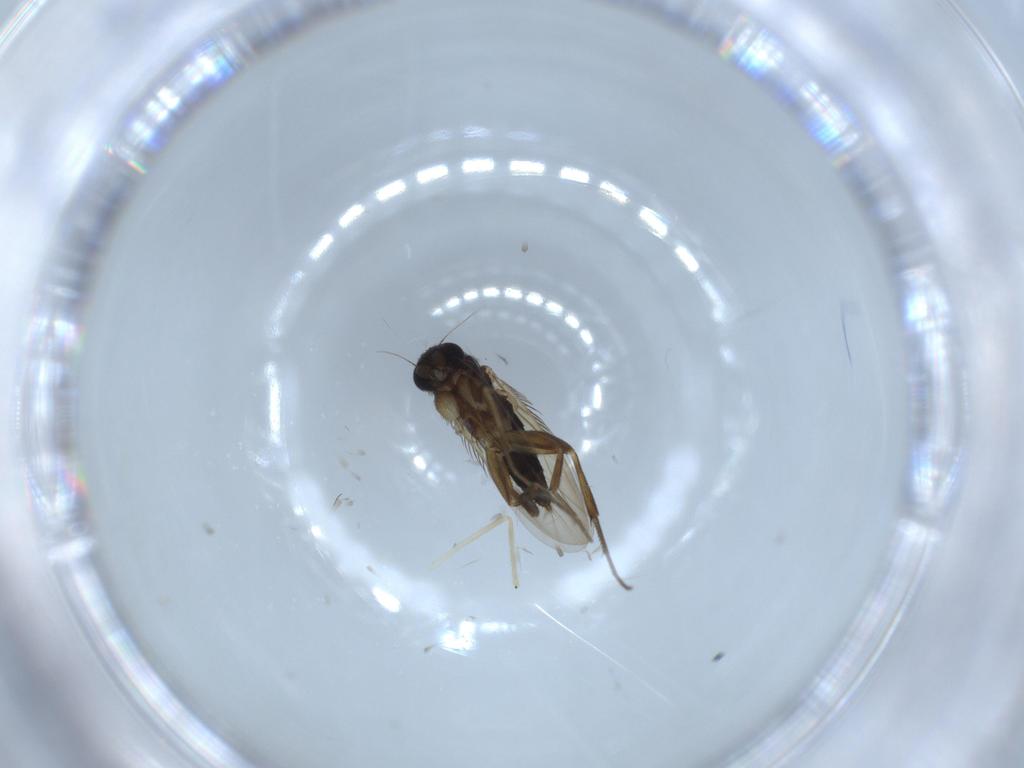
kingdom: Animalia
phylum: Arthropoda
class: Insecta
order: Diptera
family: Phoridae
